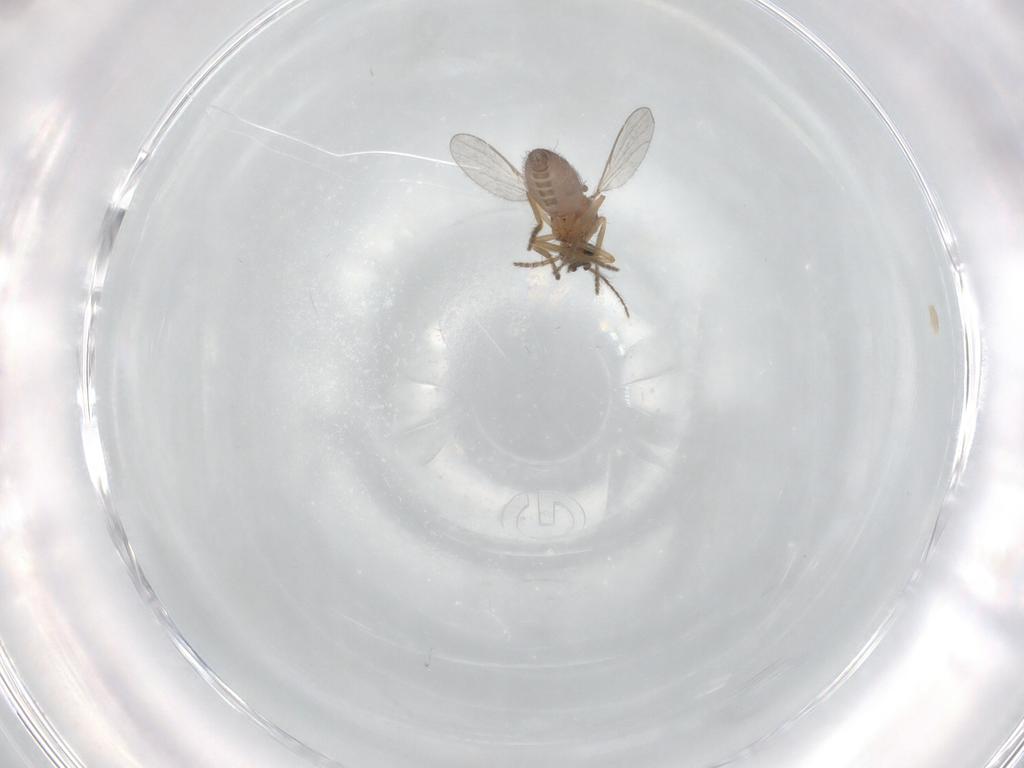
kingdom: Animalia
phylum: Arthropoda
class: Insecta
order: Diptera
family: Ceratopogonidae
